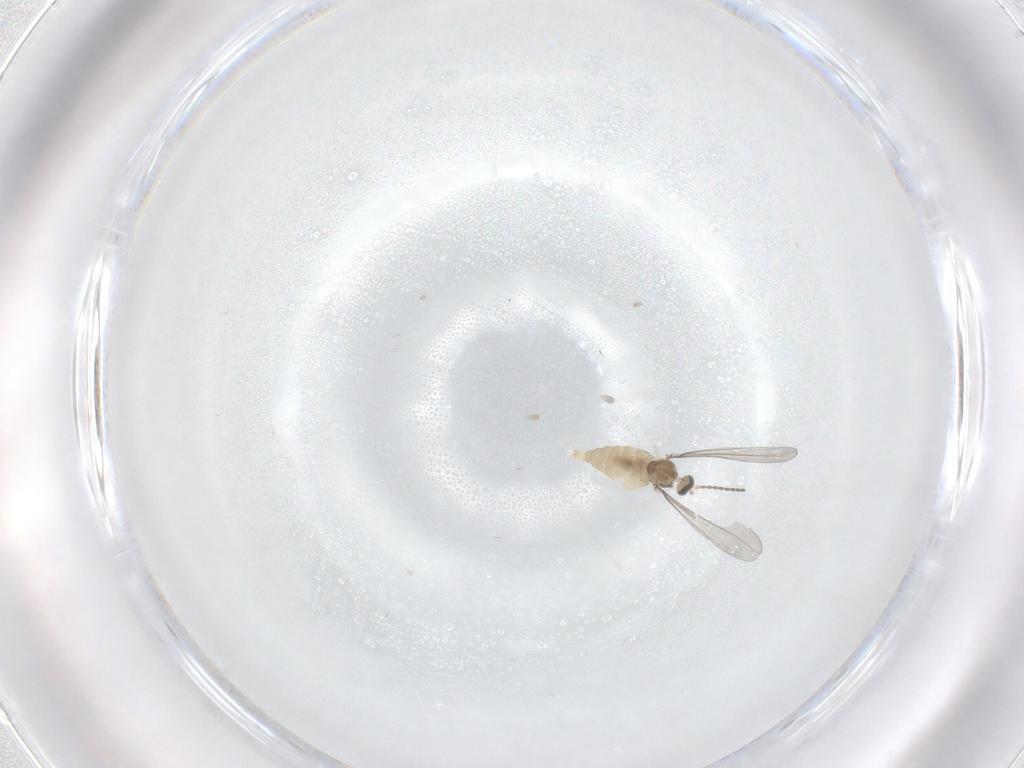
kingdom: Animalia
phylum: Arthropoda
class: Insecta
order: Diptera
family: Cecidomyiidae
